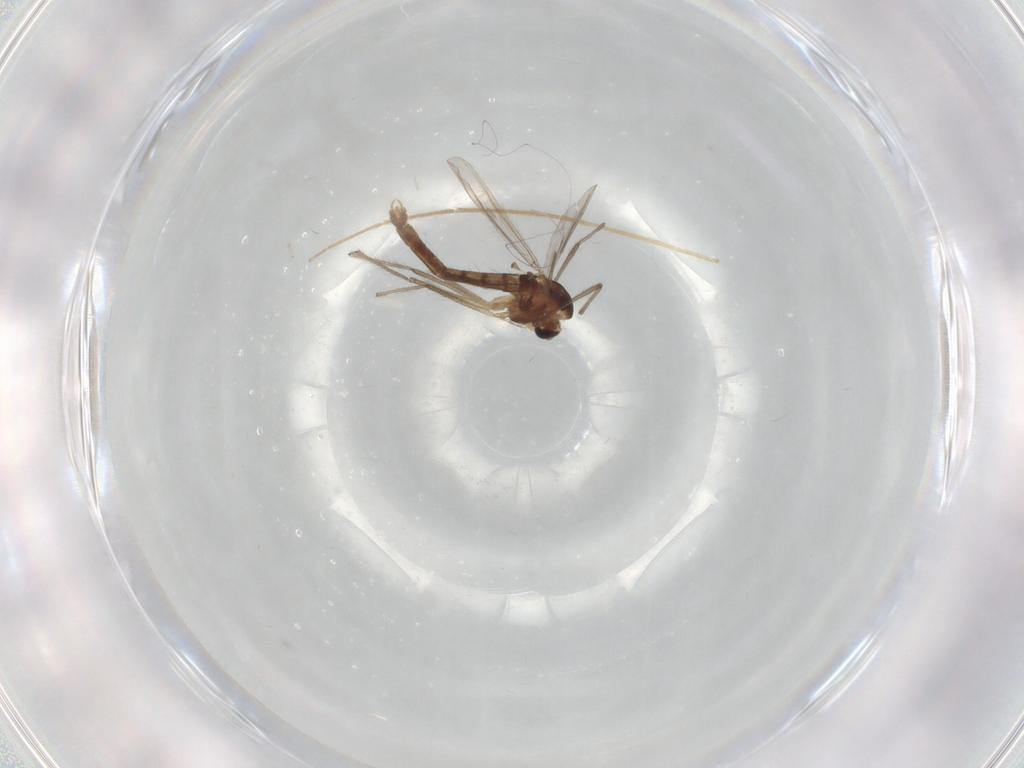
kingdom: Animalia
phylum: Arthropoda
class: Insecta
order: Diptera
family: Chironomidae
